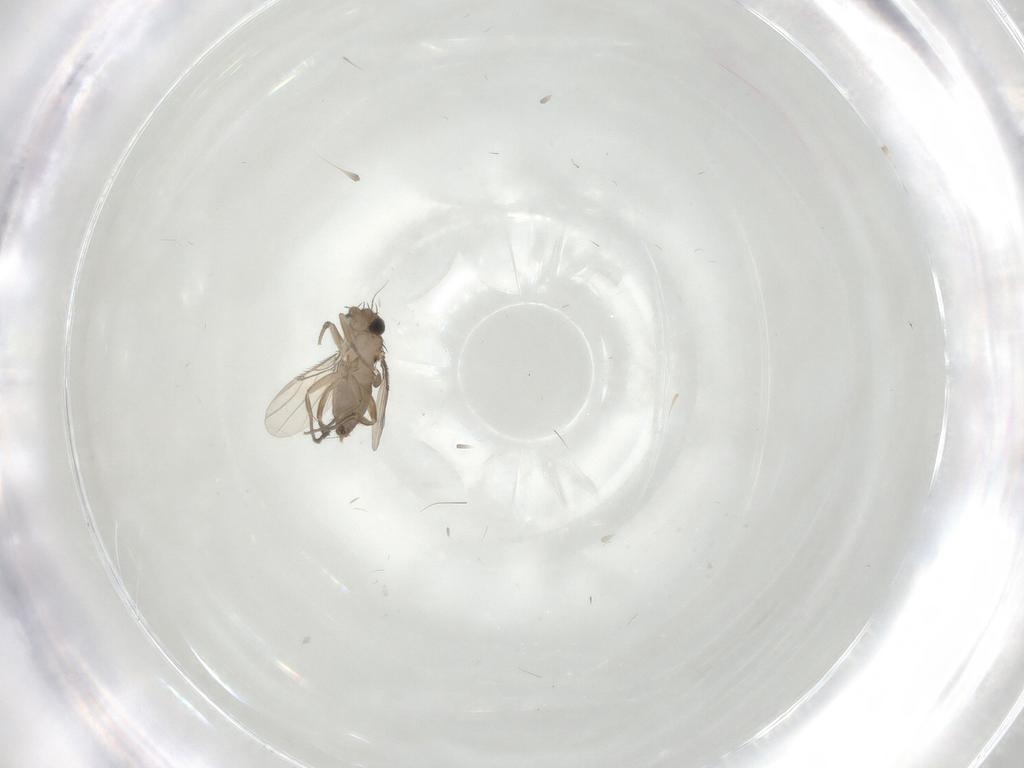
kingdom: Animalia
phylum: Arthropoda
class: Insecta
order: Diptera
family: Phoridae
